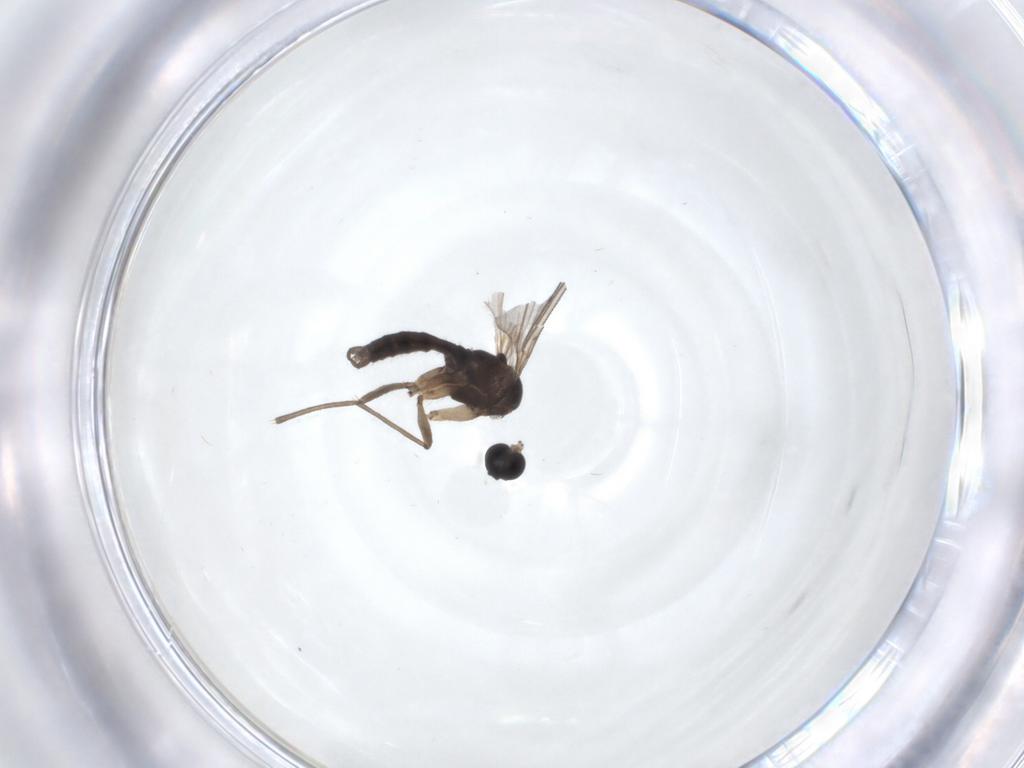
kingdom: Animalia
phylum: Arthropoda
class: Insecta
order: Diptera
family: Sciaridae
